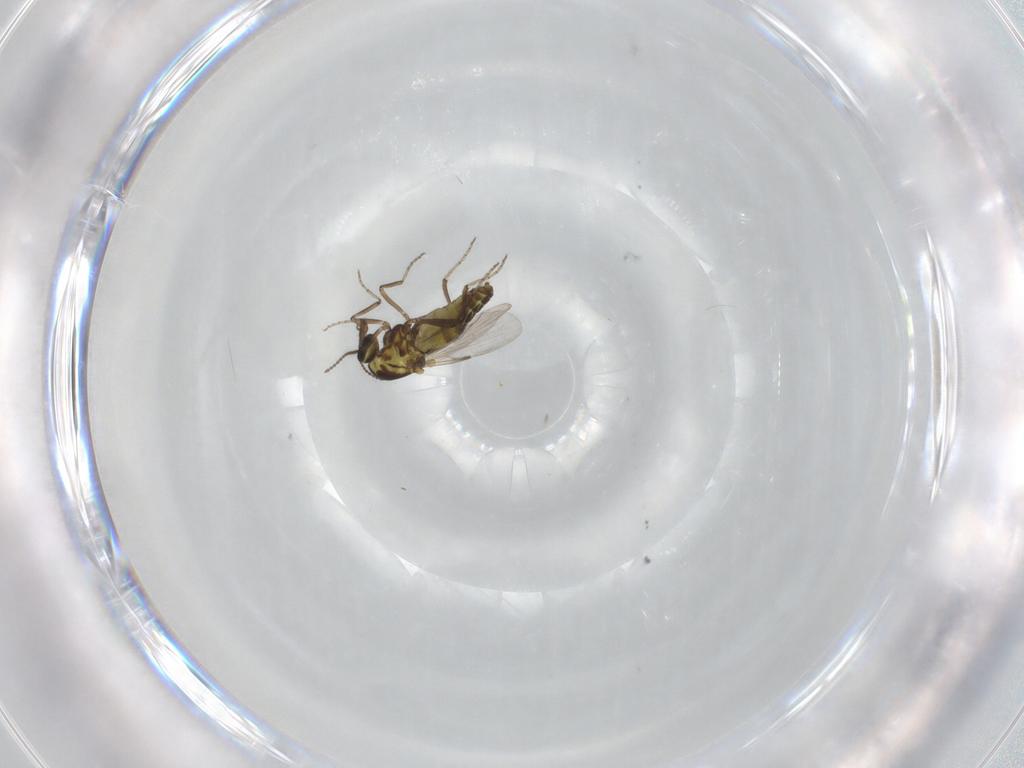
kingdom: Animalia
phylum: Arthropoda
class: Insecta
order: Diptera
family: Ceratopogonidae
